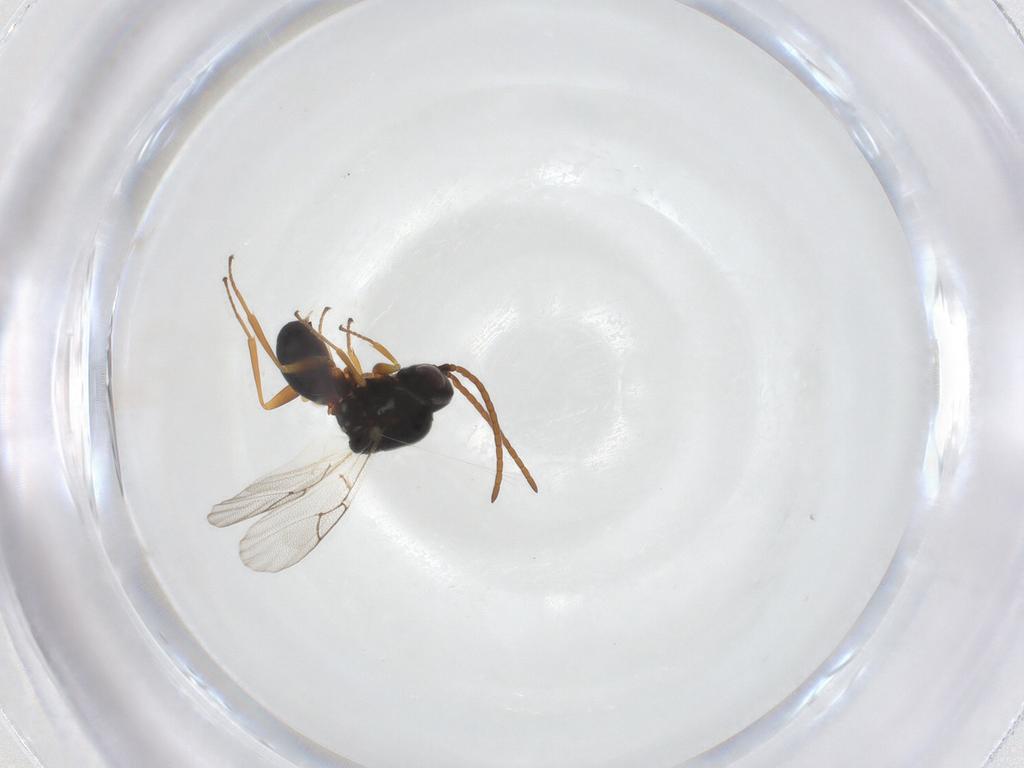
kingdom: Animalia
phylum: Arthropoda
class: Insecta
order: Hymenoptera
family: Figitidae
